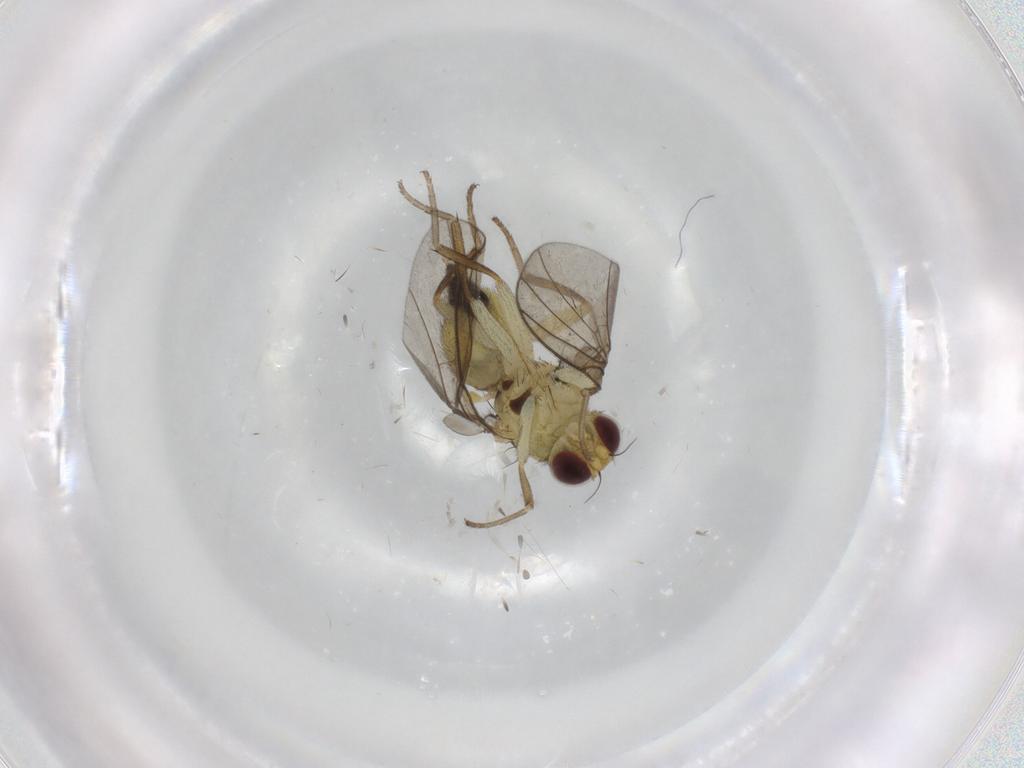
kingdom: Animalia
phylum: Arthropoda
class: Insecta
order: Diptera
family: Agromyzidae
